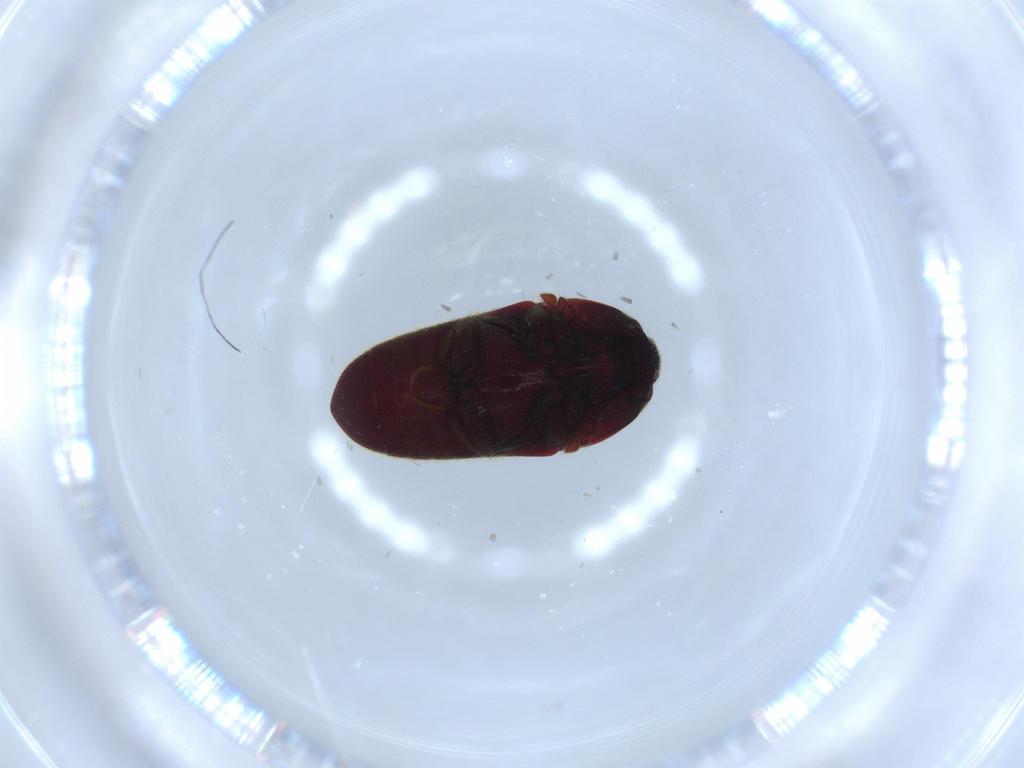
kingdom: Animalia
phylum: Arthropoda
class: Insecta
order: Coleoptera
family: Throscidae
